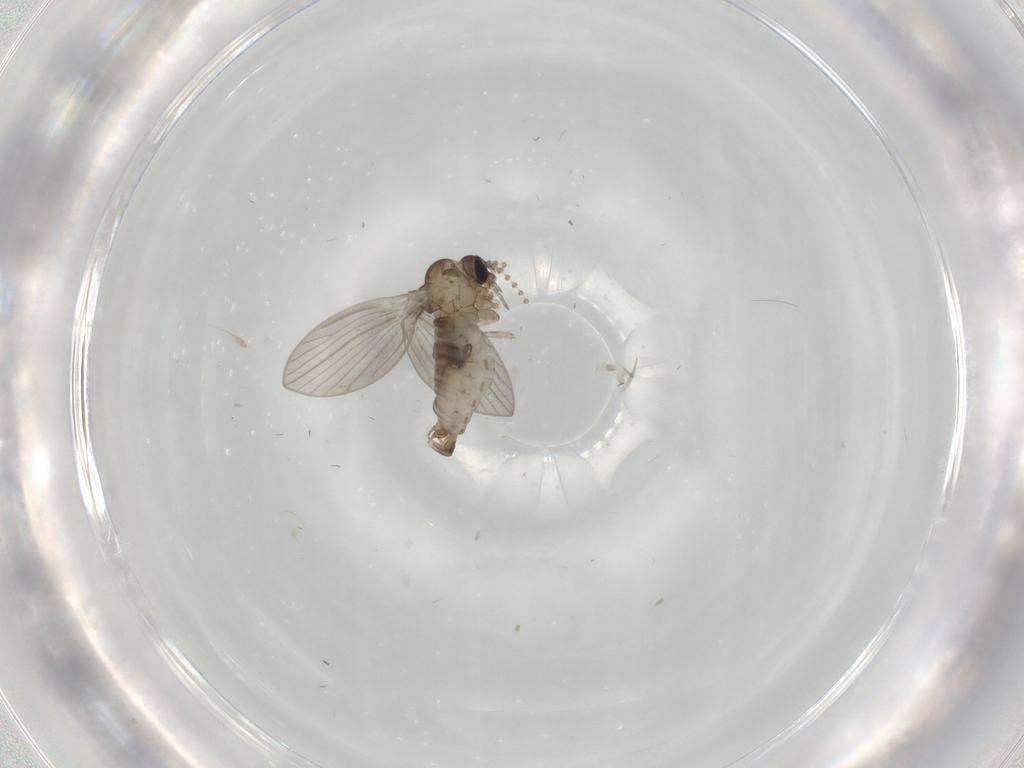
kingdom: Animalia
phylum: Arthropoda
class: Insecta
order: Diptera
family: Psychodidae
